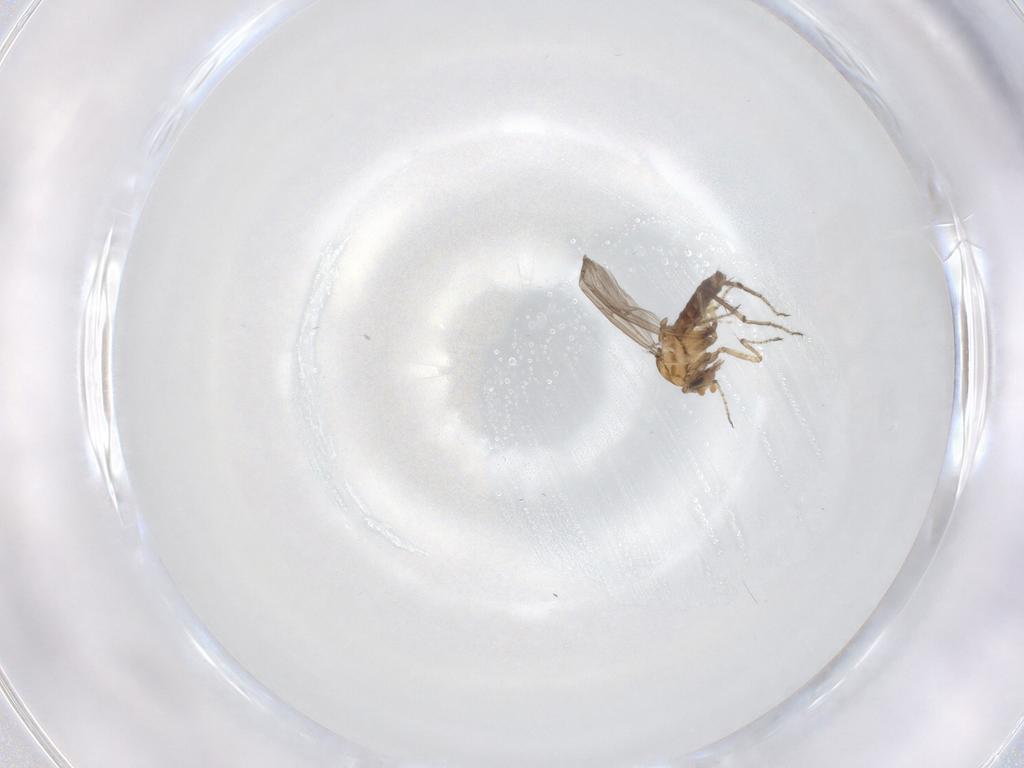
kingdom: Animalia
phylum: Arthropoda
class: Insecta
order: Diptera
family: Ceratopogonidae
